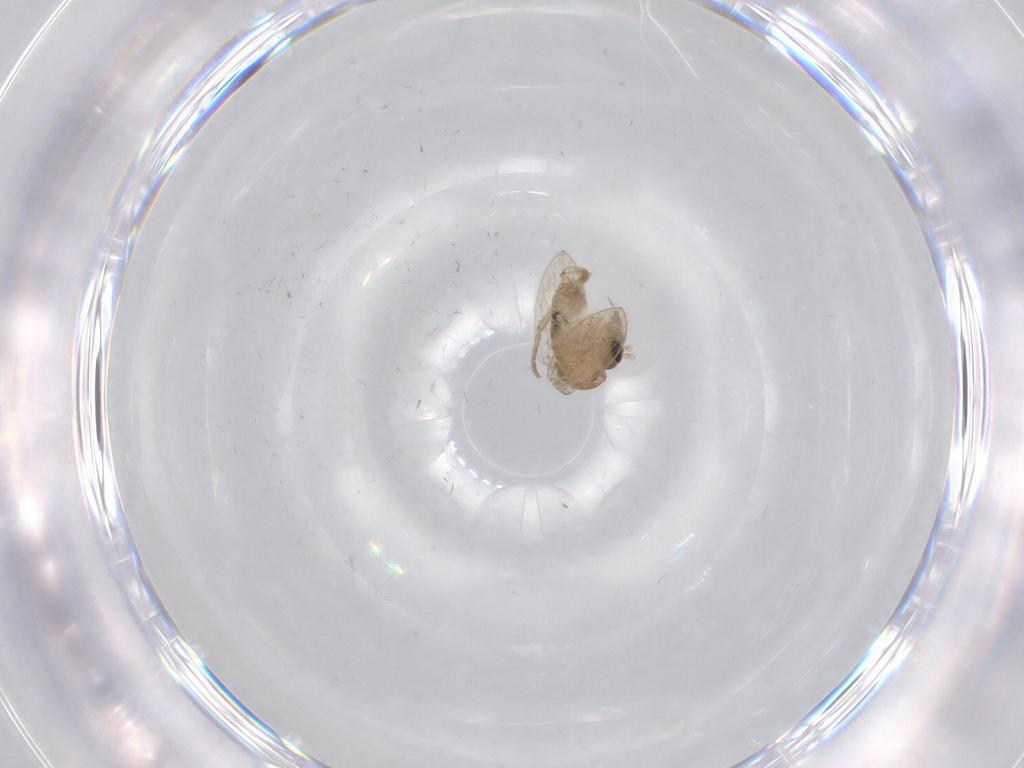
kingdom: Animalia
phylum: Arthropoda
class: Insecta
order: Diptera
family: Psychodidae
